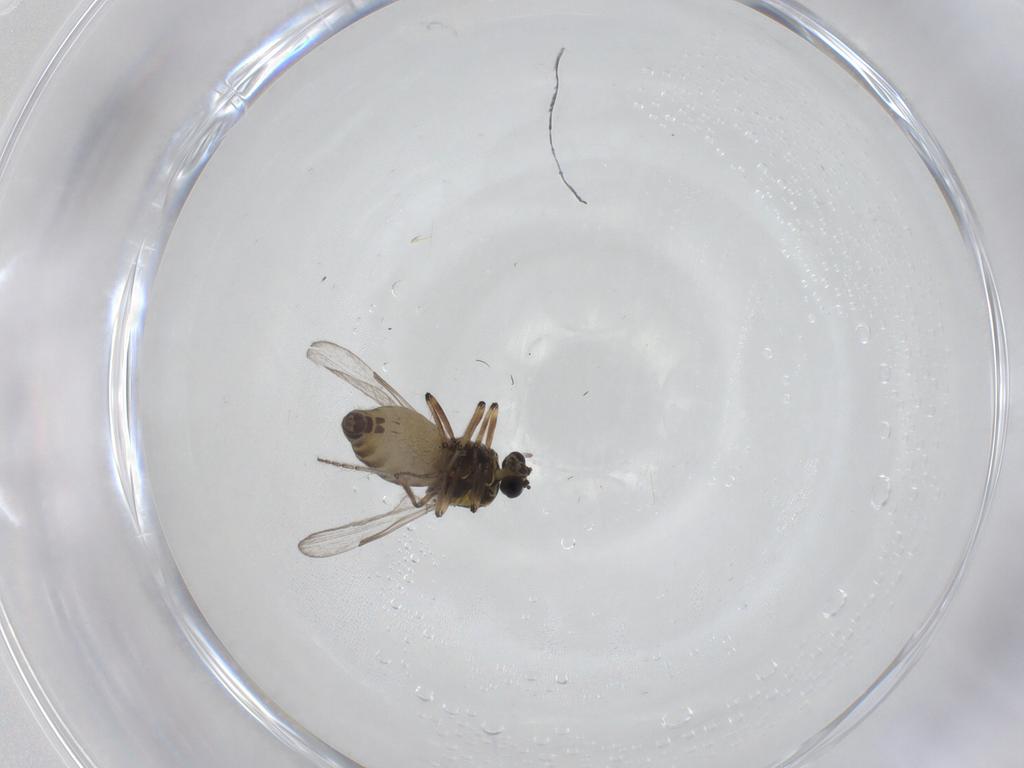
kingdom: Animalia
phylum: Arthropoda
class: Insecta
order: Diptera
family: Ceratopogonidae
